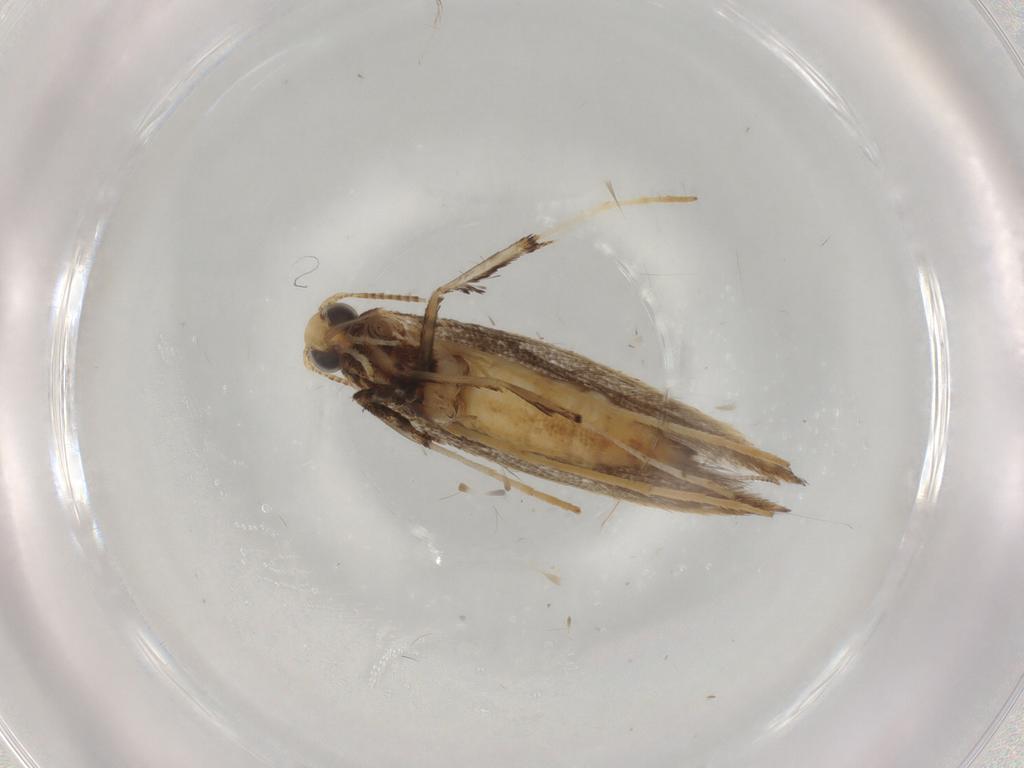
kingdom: Animalia
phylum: Arthropoda
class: Insecta
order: Lepidoptera
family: Gracillariidae
